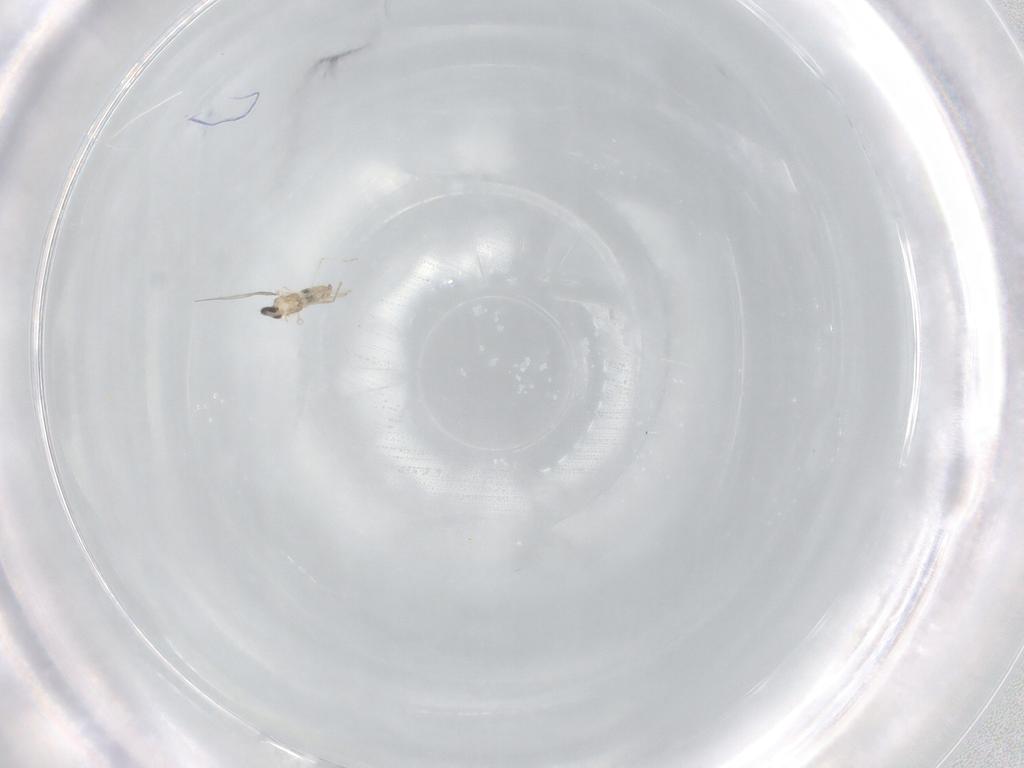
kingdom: Animalia
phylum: Arthropoda
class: Insecta
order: Diptera
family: Cecidomyiidae
